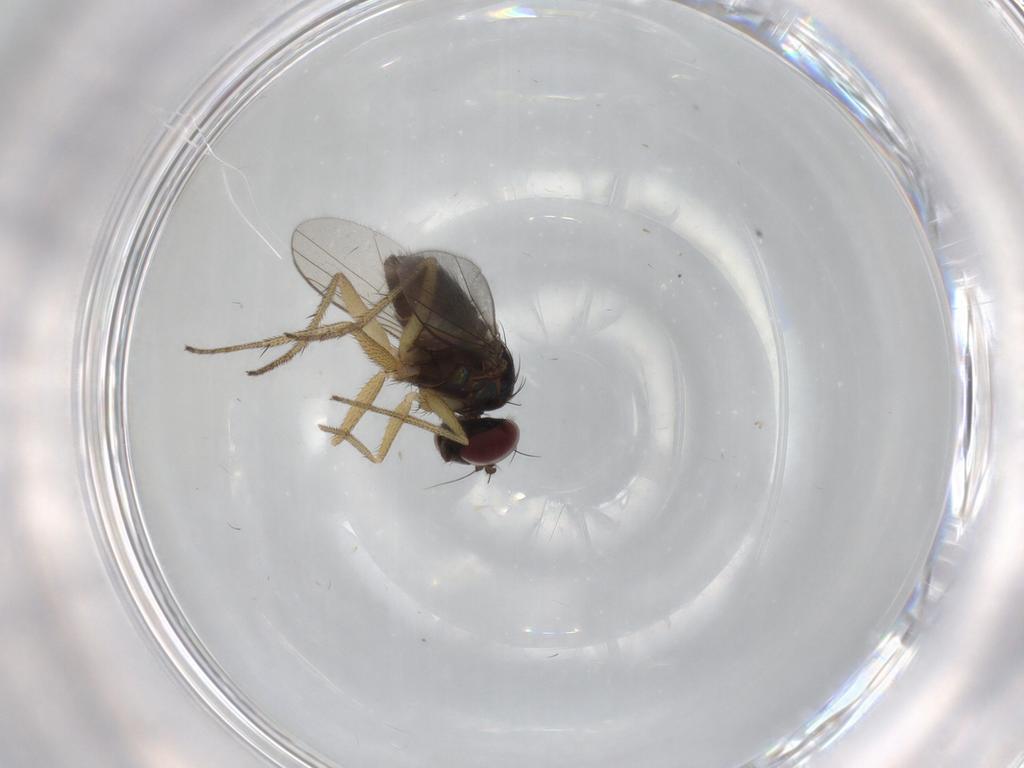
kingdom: Animalia
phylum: Arthropoda
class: Insecta
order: Diptera
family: Dolichopodidae
